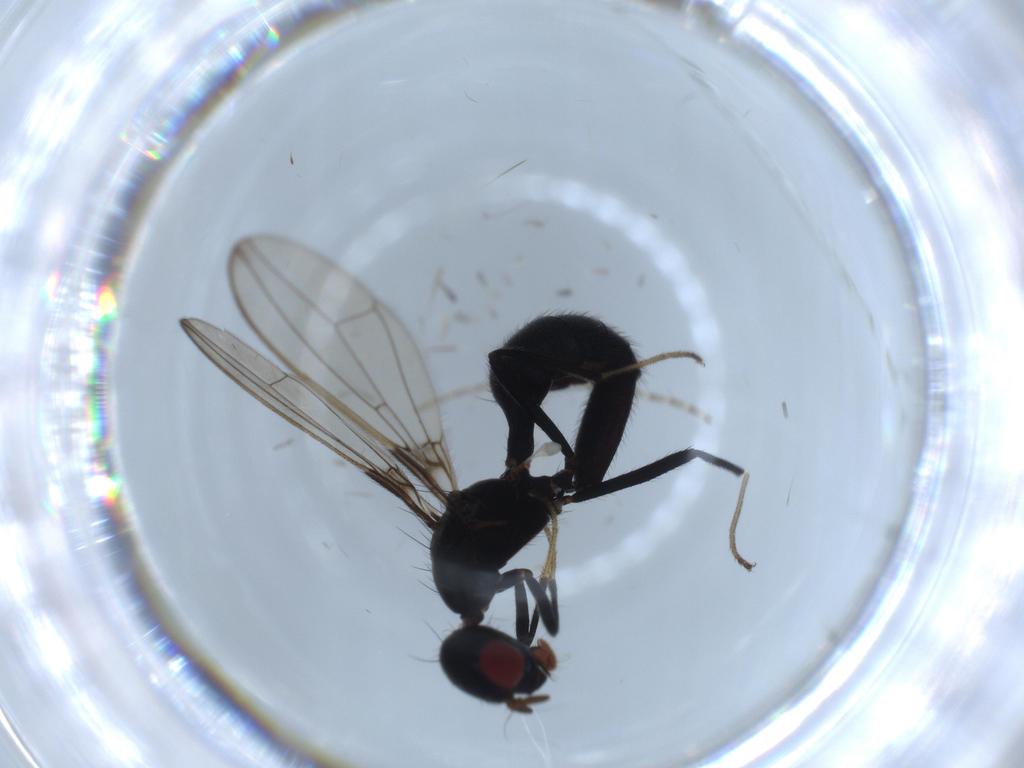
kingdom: Animalia
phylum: Arthropoda
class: Insecta
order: Diptera
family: Richardiidae
